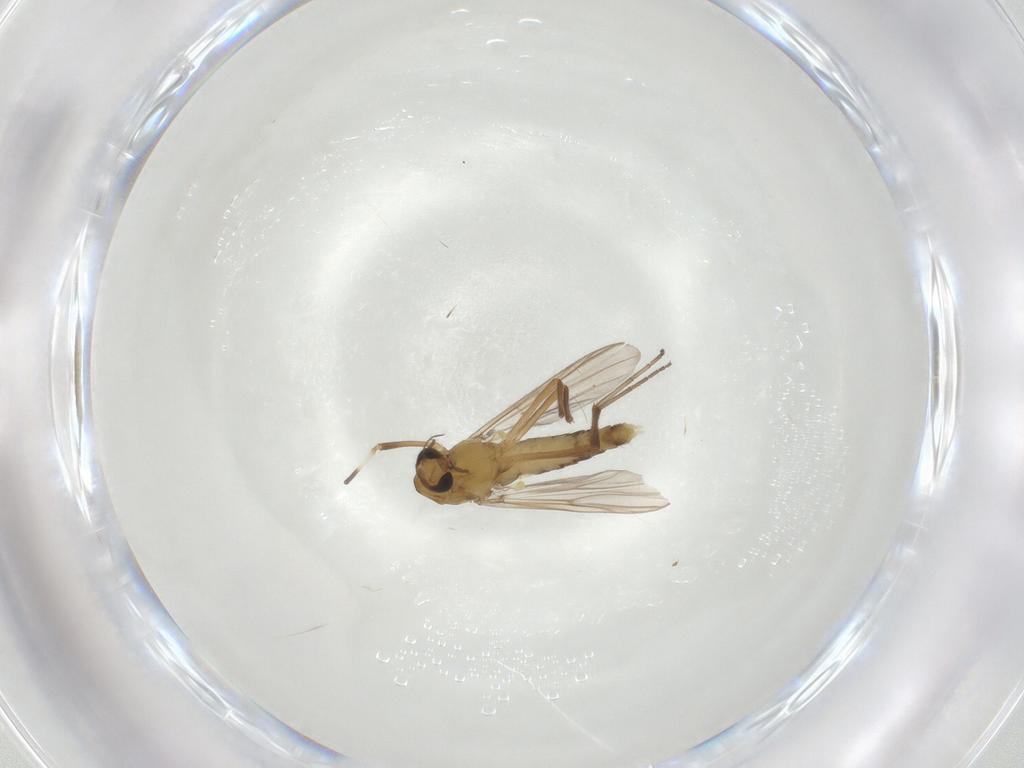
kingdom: Animalia
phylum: Arthropoda
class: Insecta
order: Diptera
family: Chironomidae
